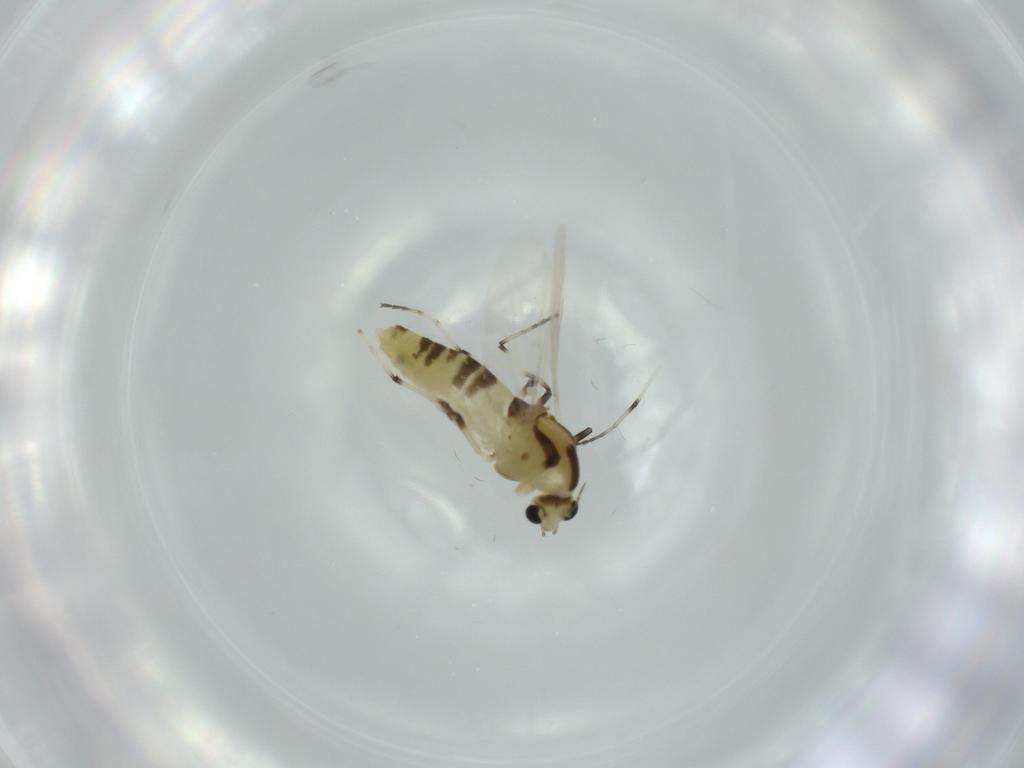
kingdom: Animalia
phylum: Arthropoda
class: Insecta
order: Diptera
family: Chironomidae
